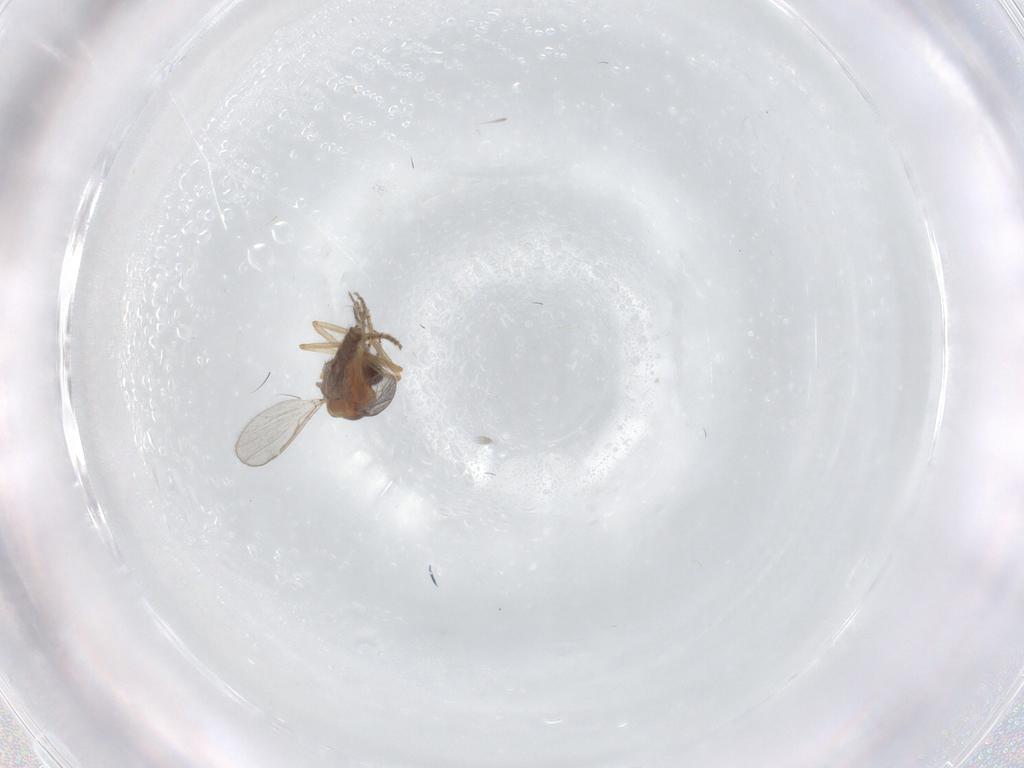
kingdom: Animalia
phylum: Arthropoda
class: Insecta
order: Diptera
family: Ceratopogonidae
